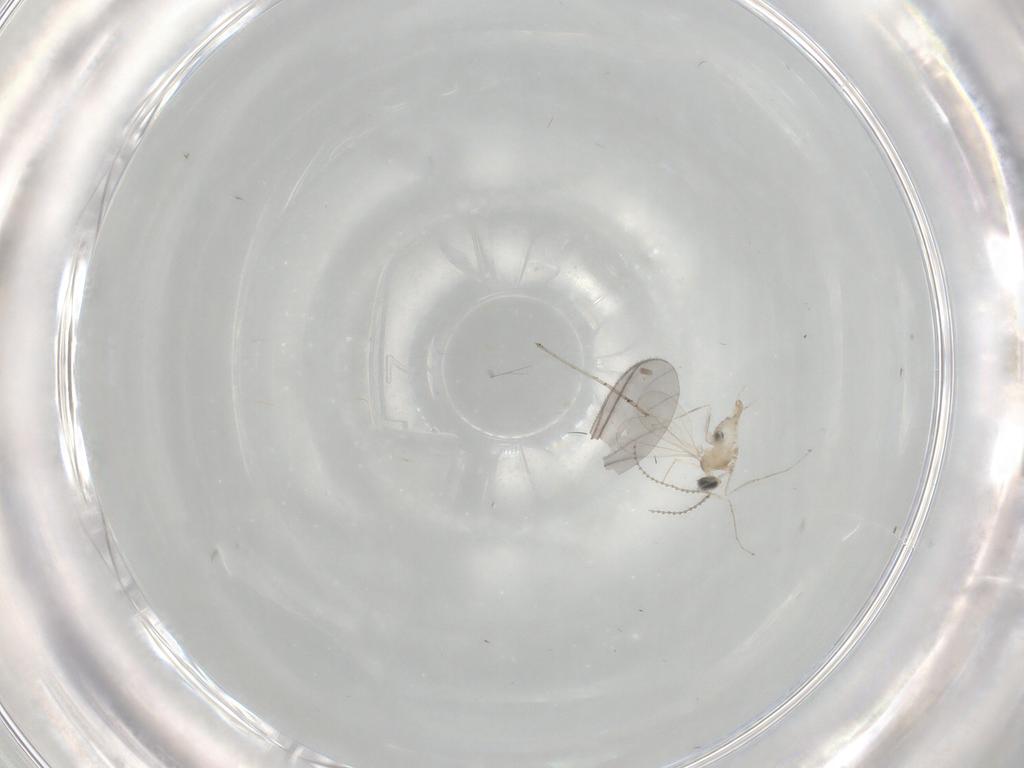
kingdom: Animalia
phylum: Arthropoda
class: Insecta
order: Diptera
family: Cecidomyiidae
